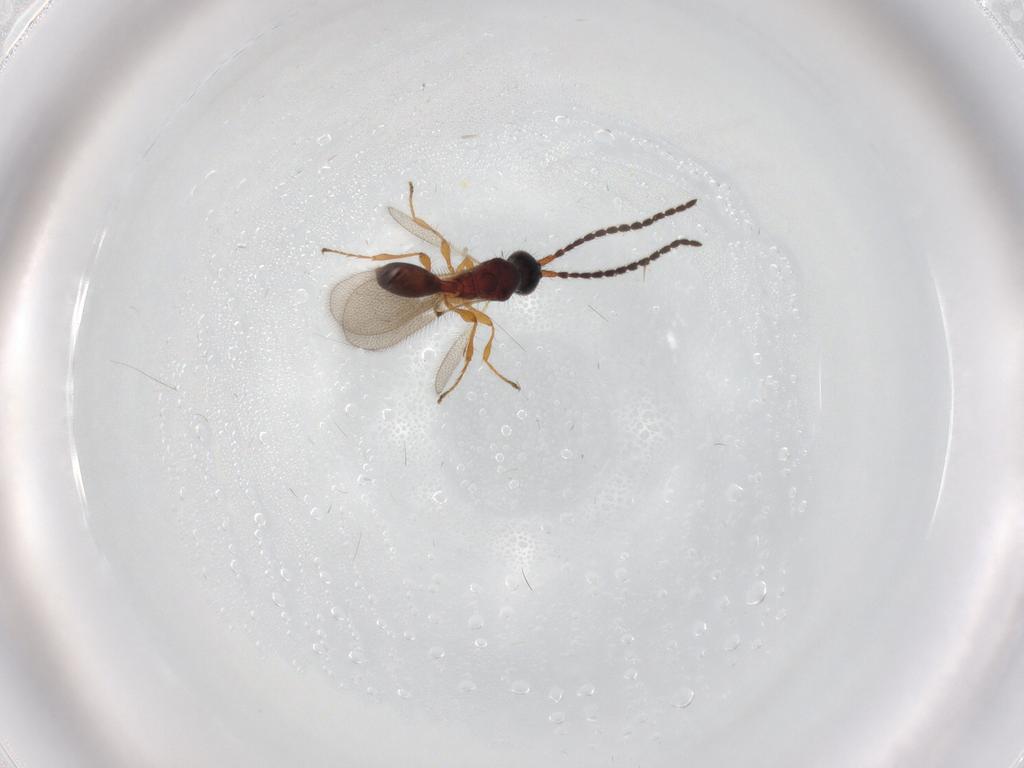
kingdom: Animalia
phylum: Arthropoda
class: Insecta
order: Hymenoptera
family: Diapriidae
